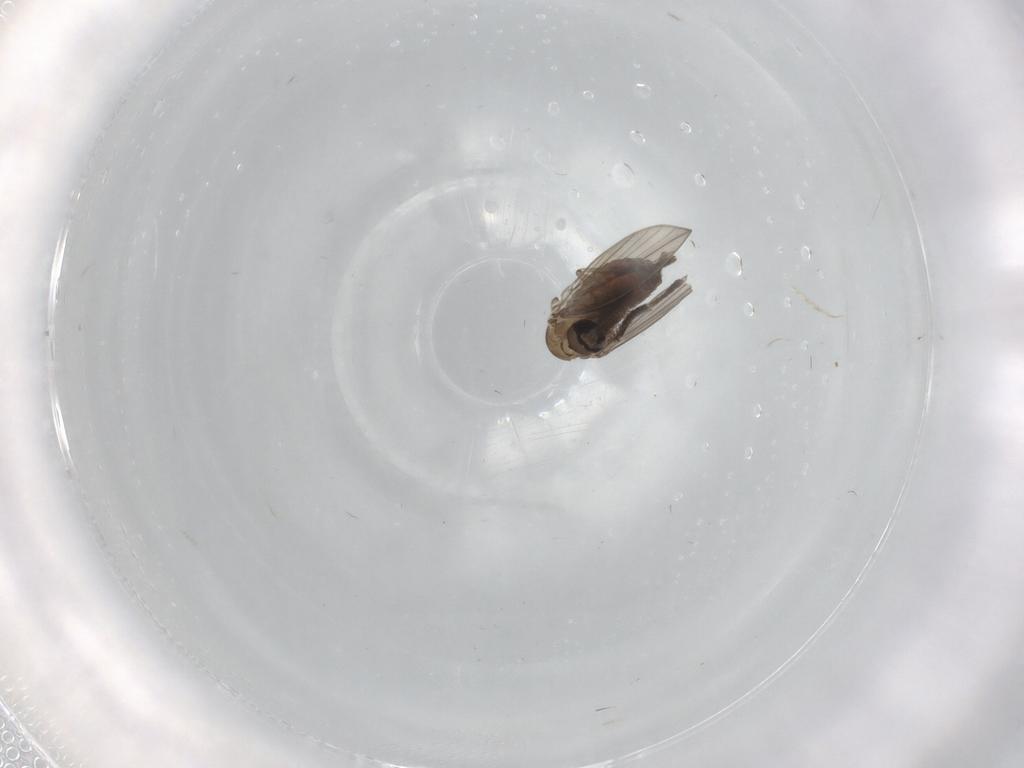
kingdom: Animalia
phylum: Arthropoda
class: Insecta
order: Diptera
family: Psychodidae
